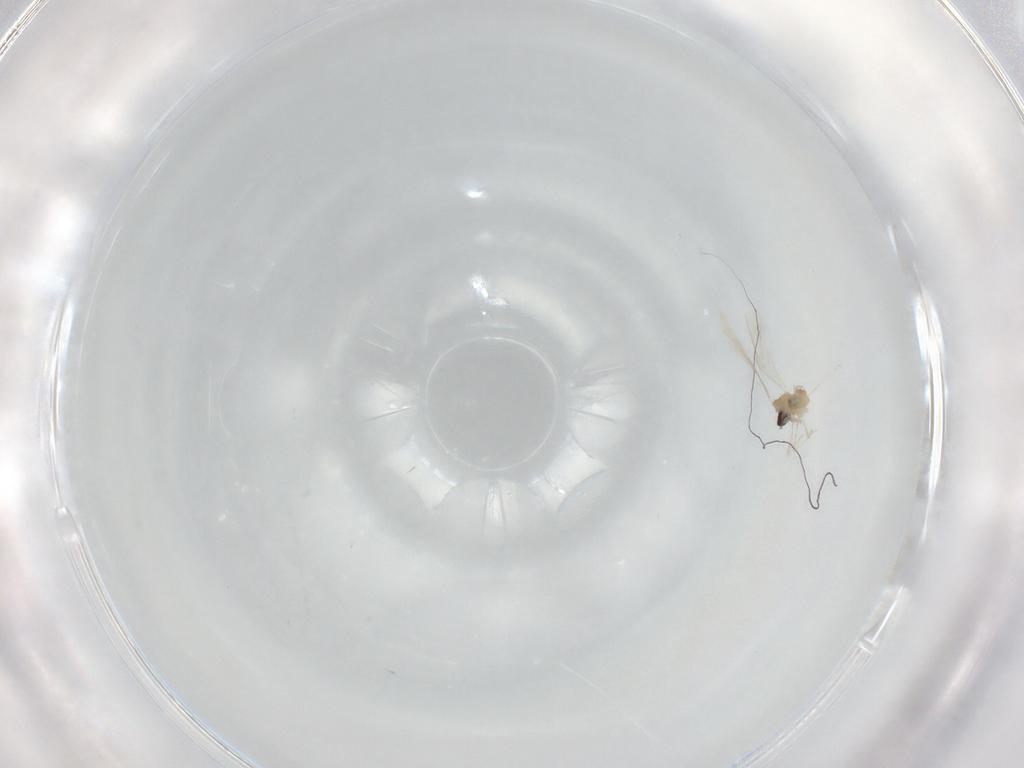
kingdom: Animalia
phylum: Arthropoda
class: Insecta
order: Diptera
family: Cecidomyiidae
